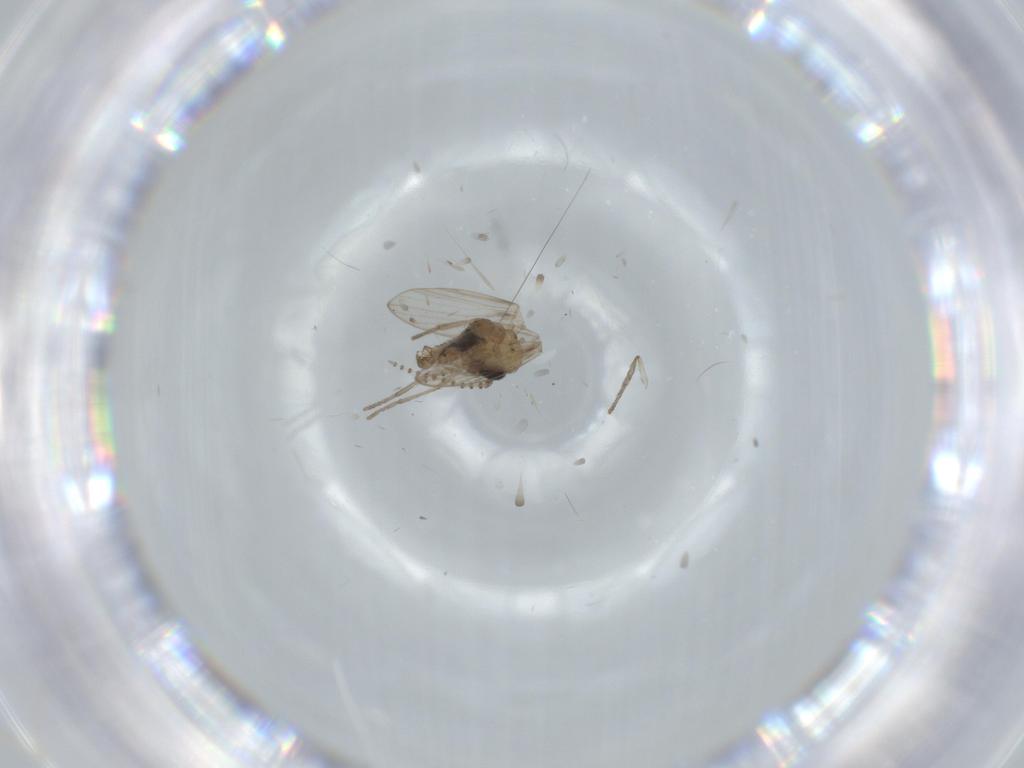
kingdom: Animalia
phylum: Arthropoda
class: Insecta
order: Diptera
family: Psychodidae
